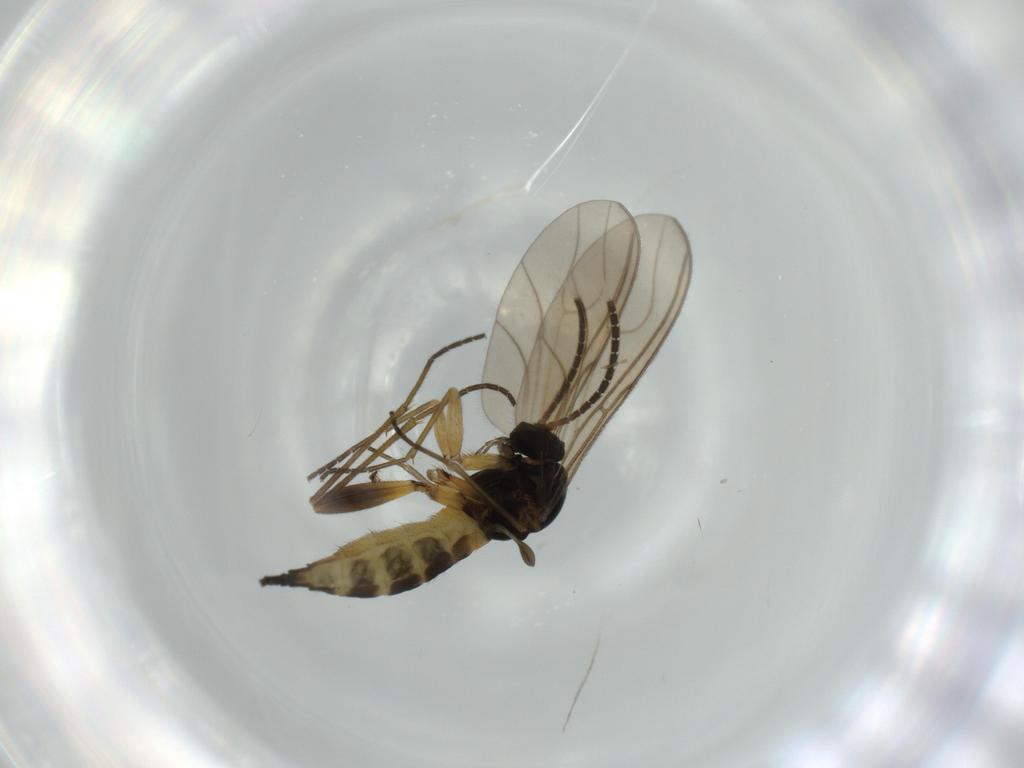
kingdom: Animalia
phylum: Arthropoda
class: Insecta
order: Diptera
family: Sciaridae
